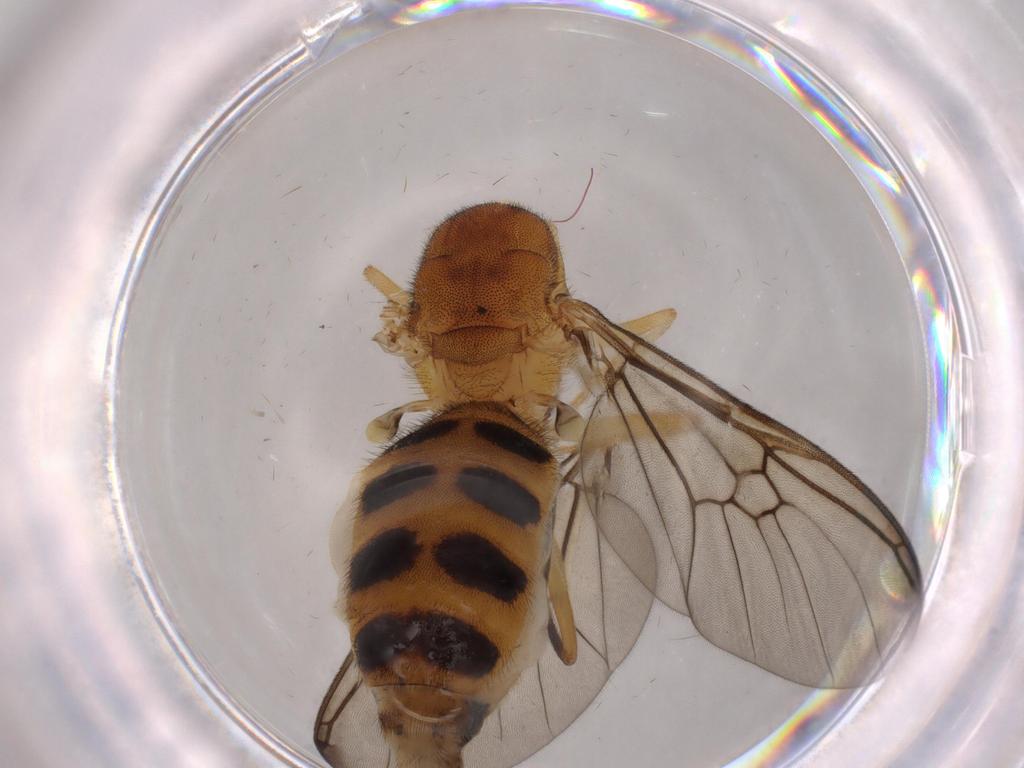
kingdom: Animalia
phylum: Arthropoda
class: Insecta
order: Diptera
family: Stratiomyidae
